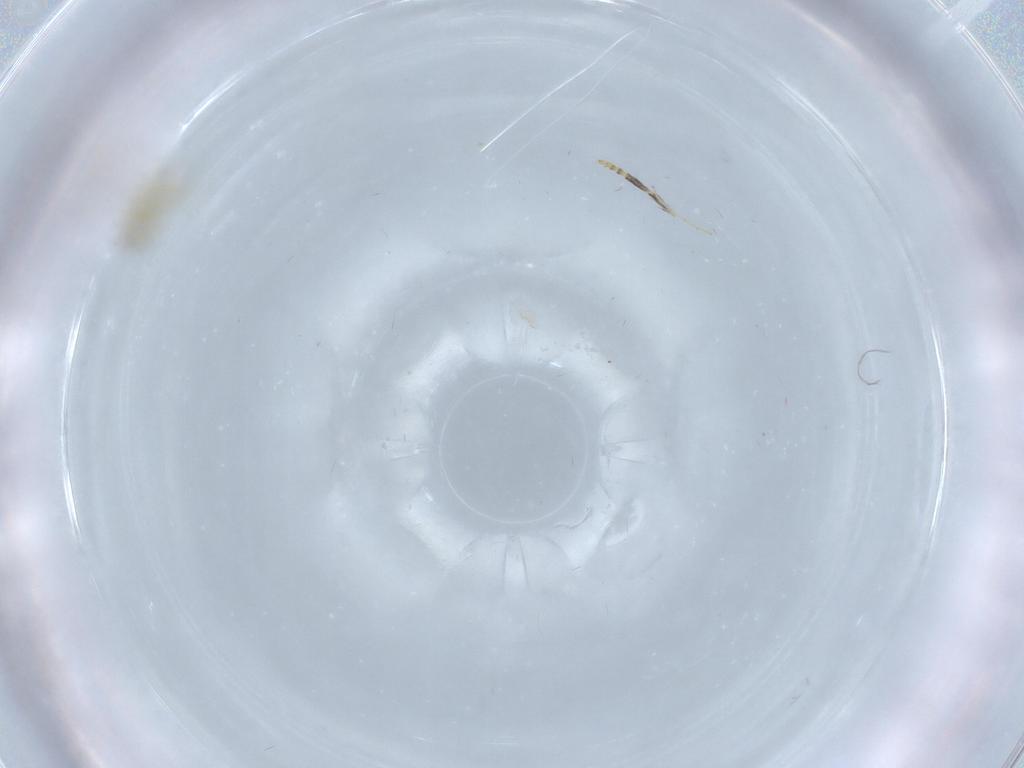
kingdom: Animalia
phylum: Arthropoda
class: Insecta
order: Diptera
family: Chironomidae
